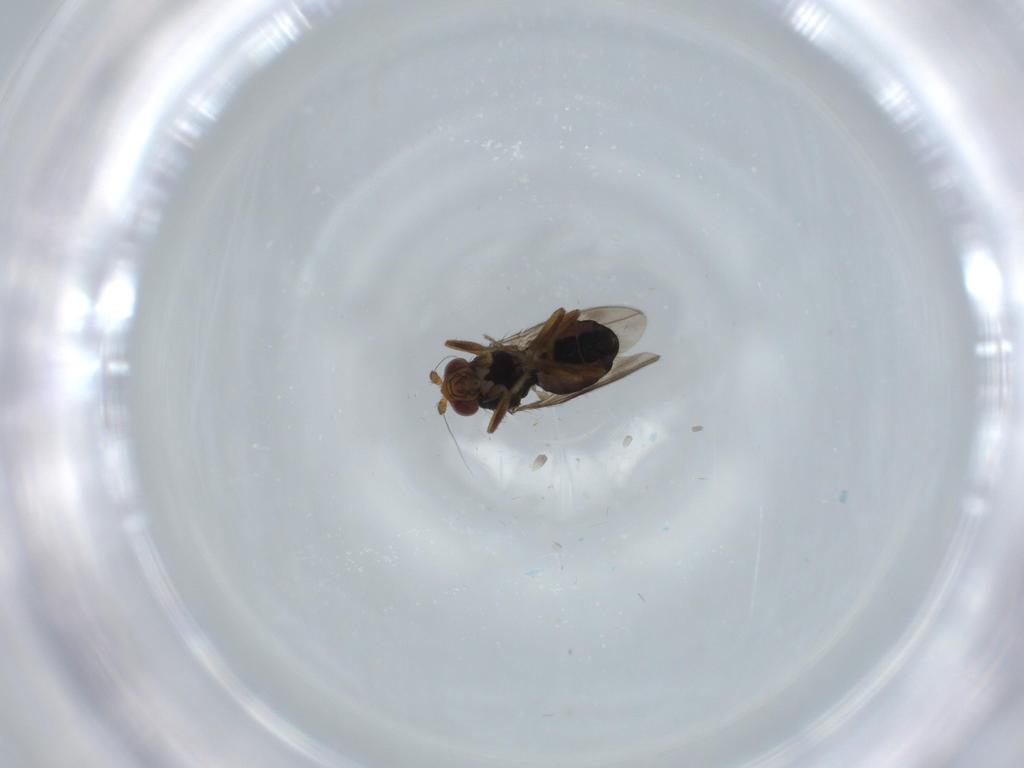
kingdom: Animalia
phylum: Arthropoda
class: Insecta
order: Diptera
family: Sphaeroceridae
